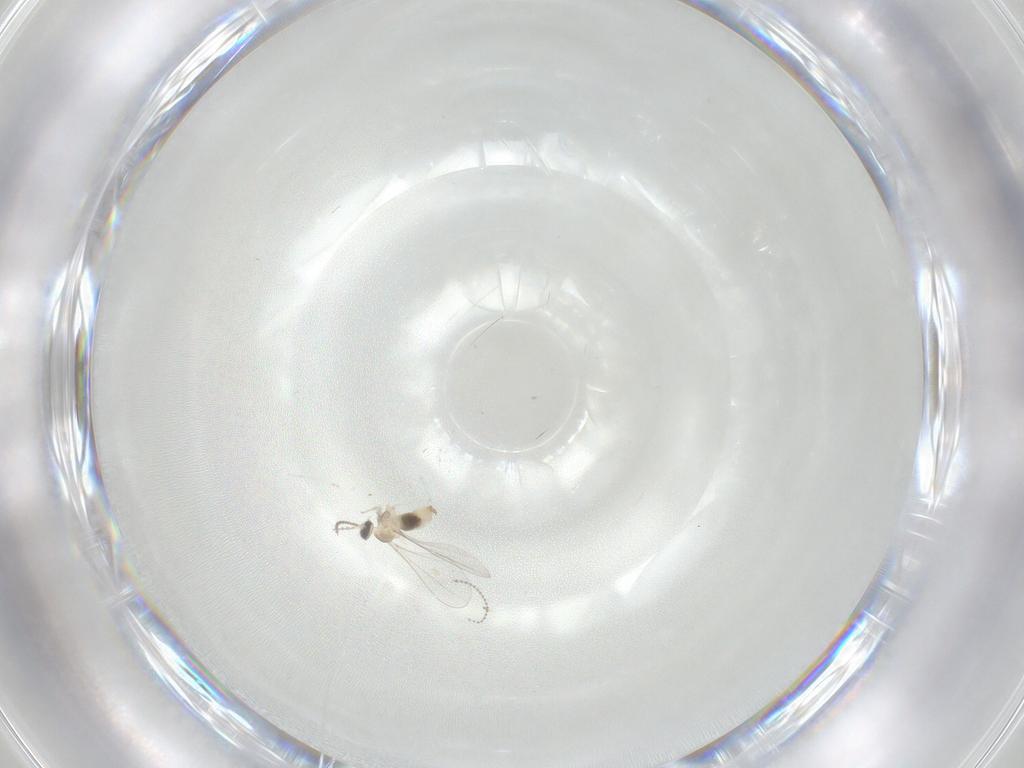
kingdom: Animalia
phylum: Arthropoda
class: Insecta
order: Diptera
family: Cecidomyiidae
